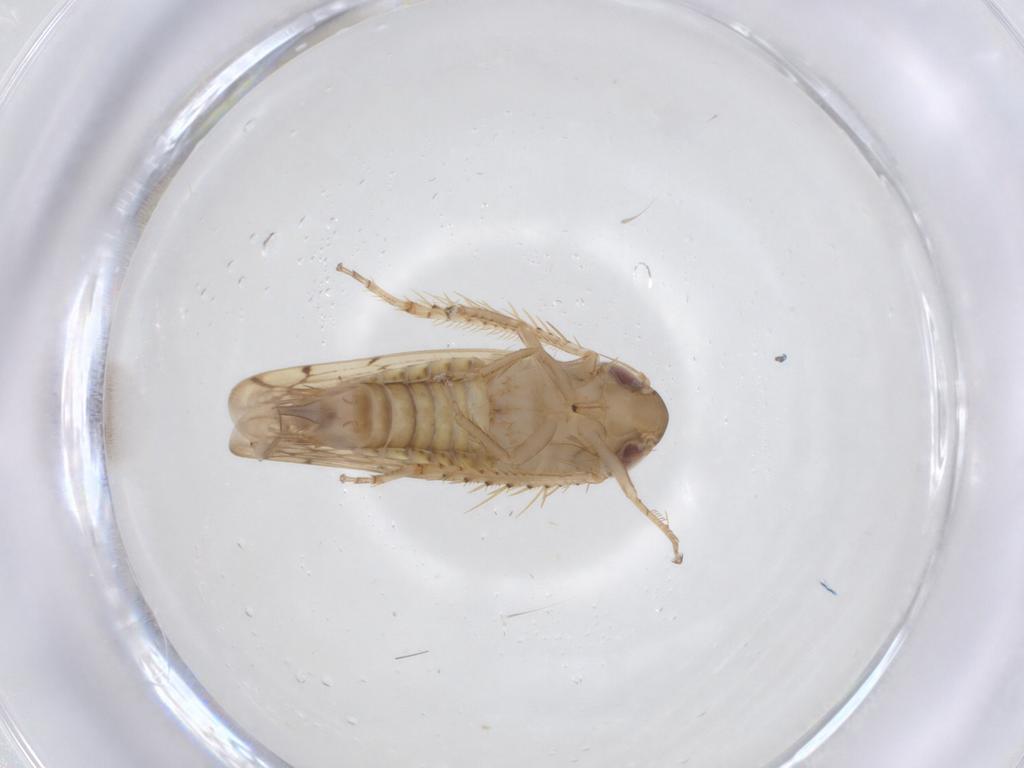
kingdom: Animalia
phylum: Arthropoda
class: Insecta
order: Hemiptera
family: Cicadellidae
